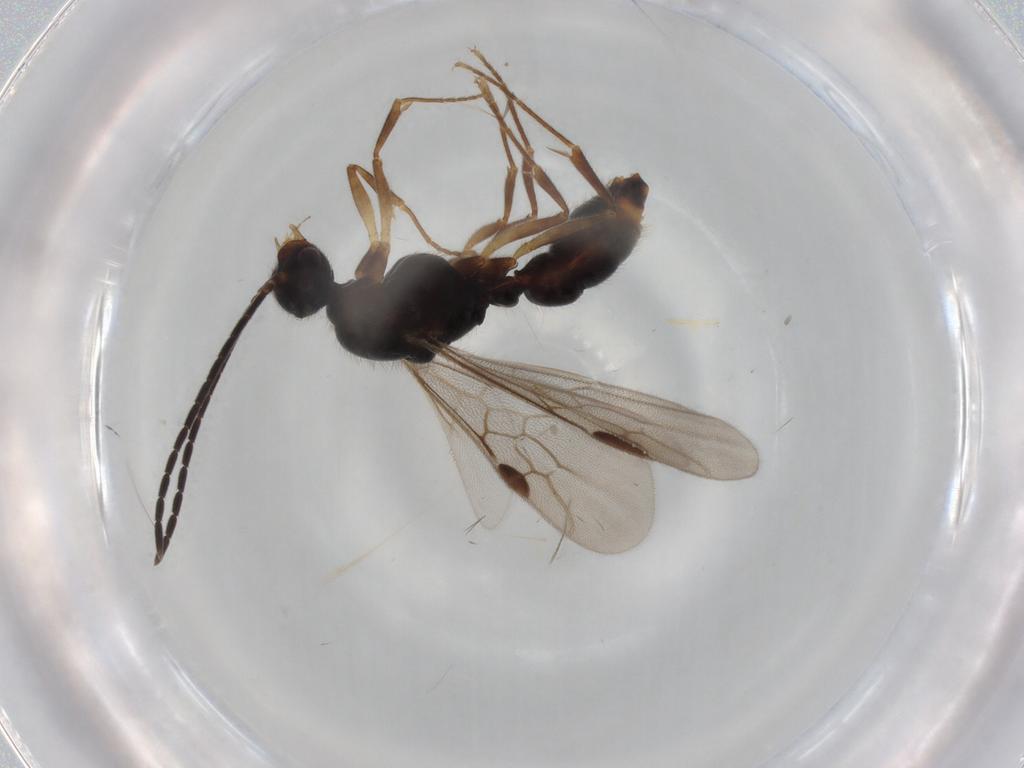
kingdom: Animalia
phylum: Arthropoda
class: Insecta
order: Hymenoptera
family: Formicidae
